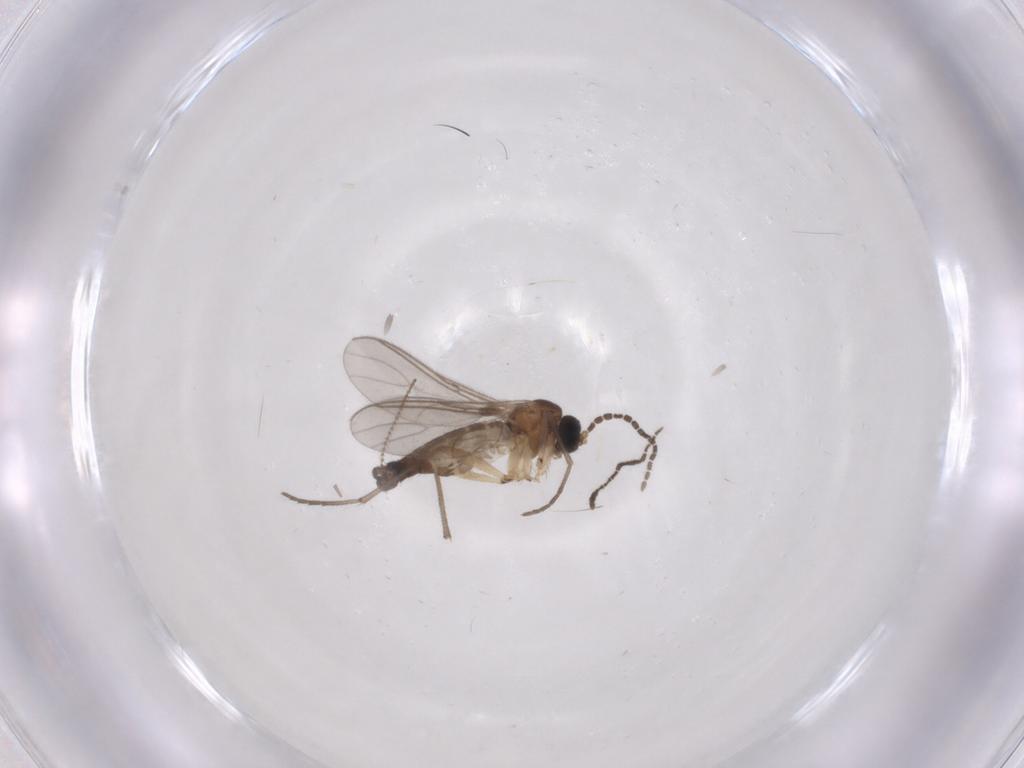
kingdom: Animalia
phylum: Arthropoda
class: Insecta
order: Diptera
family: Sciaridae
